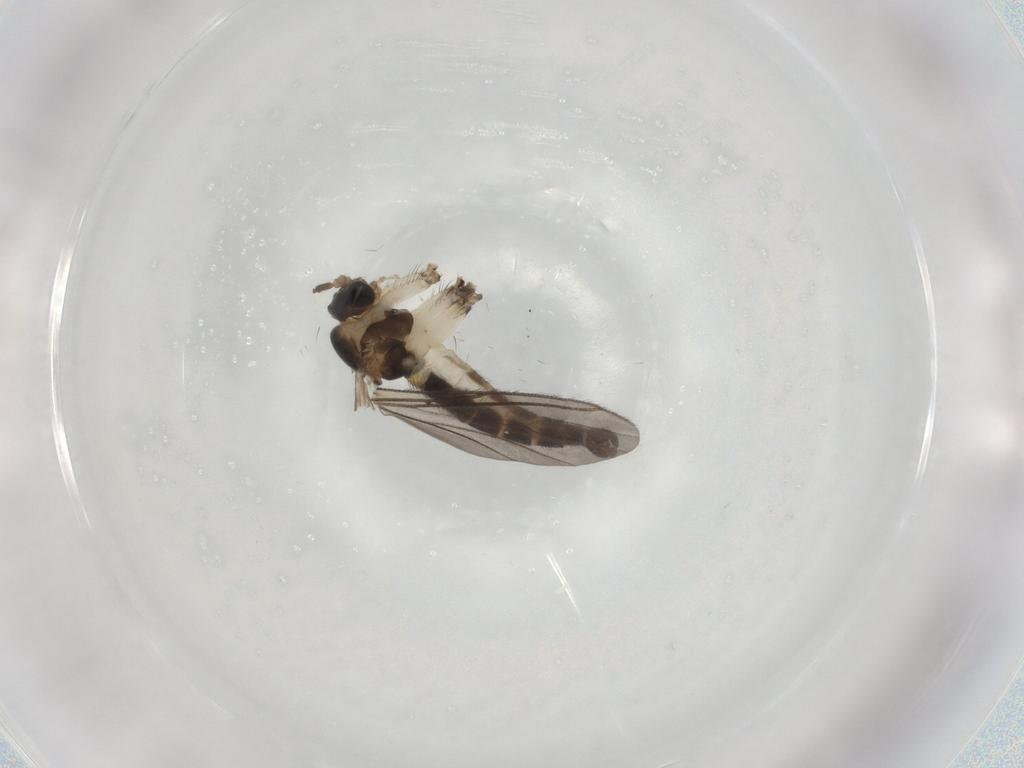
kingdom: Animalia
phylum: Arthropoda
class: Insecta
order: Diptera
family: Sciaridae
